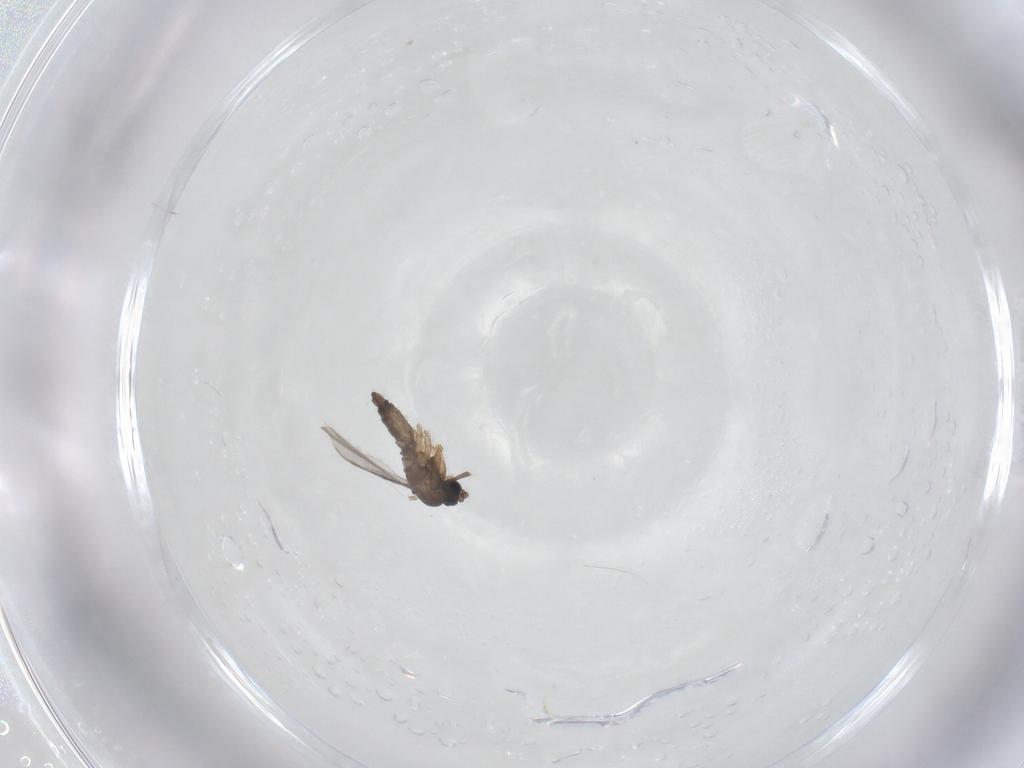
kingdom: Animalia
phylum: Arthropoda
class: Insecta
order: Diptera
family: Sciaridae
